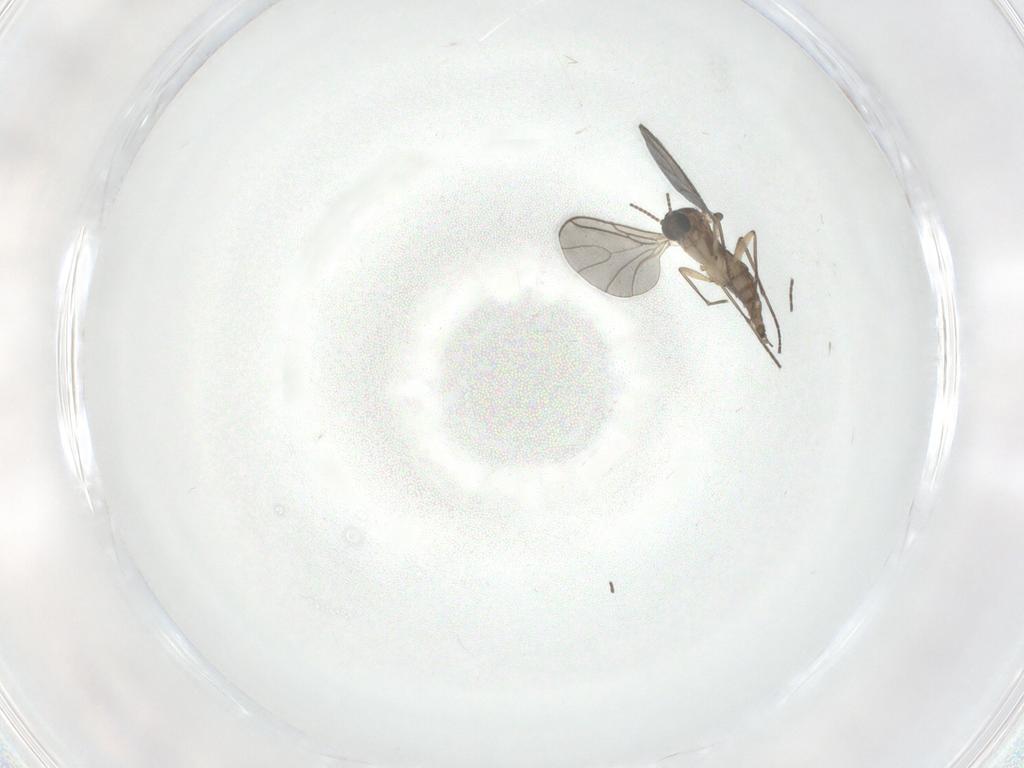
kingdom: Animalia
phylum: Arthropoda
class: Insecta
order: Diptera
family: Sciaridae
